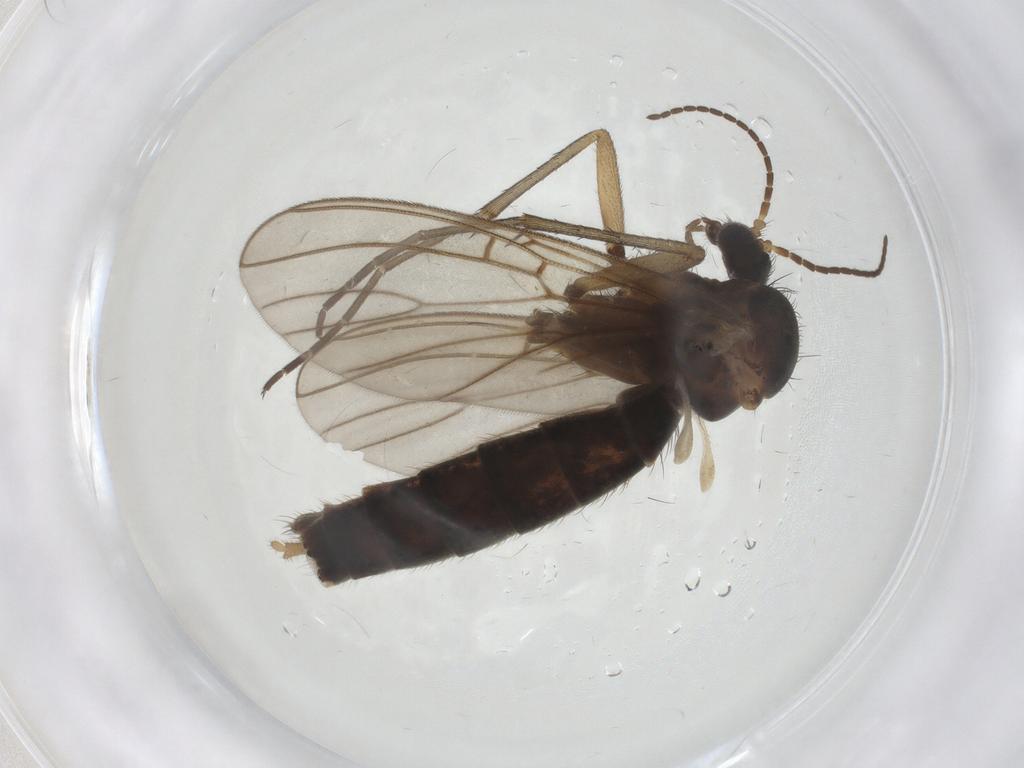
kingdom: Animalia
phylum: Arthropoda
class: Insecta
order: Diptera
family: Mycetophilidae
